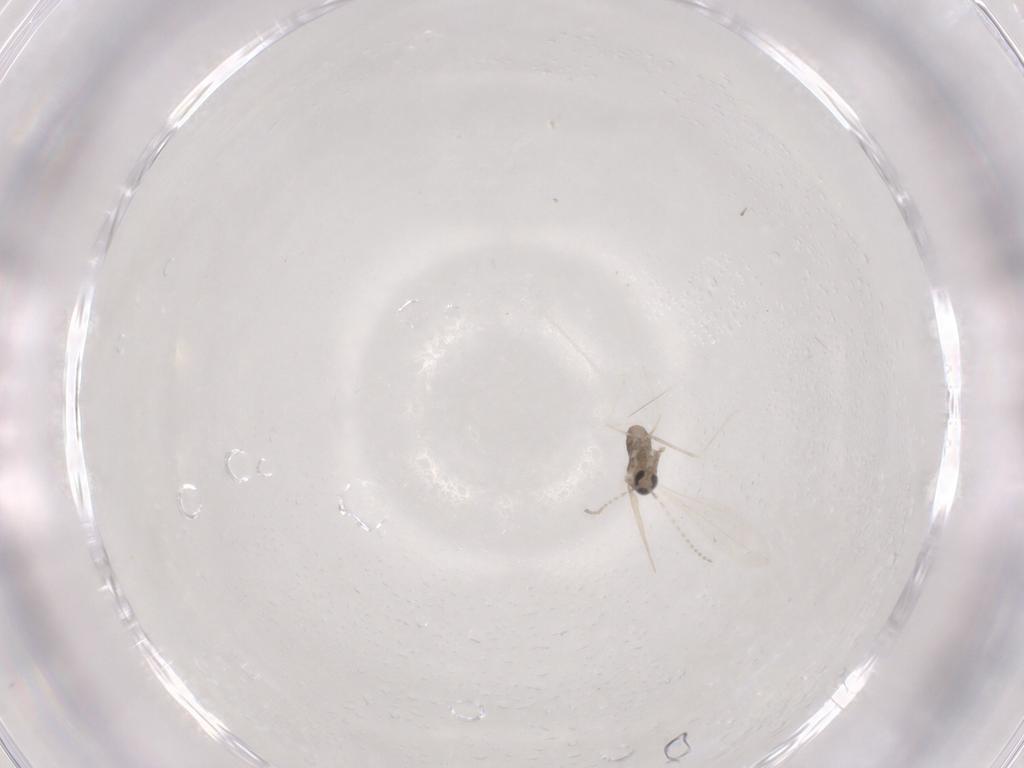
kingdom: Animalia
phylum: Arthropoda
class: Insecta
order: Diptera
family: Cecidomyiidae
